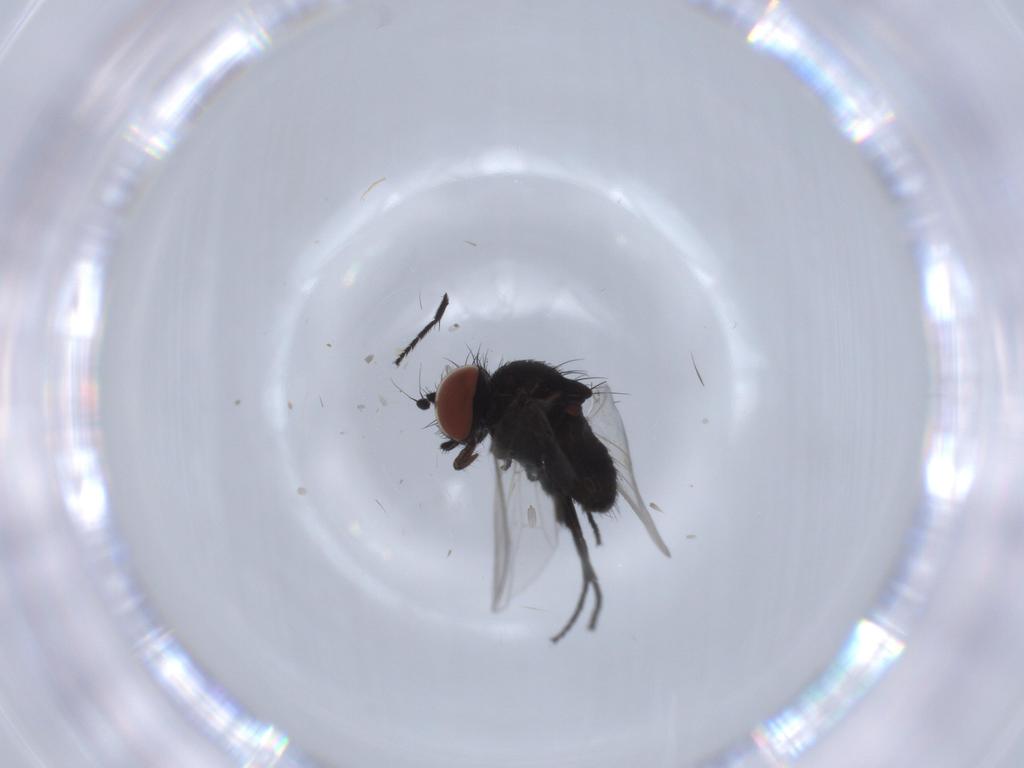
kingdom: Animalia
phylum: Arthropoda
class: Insecta
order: Diptera
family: Milichiidae
